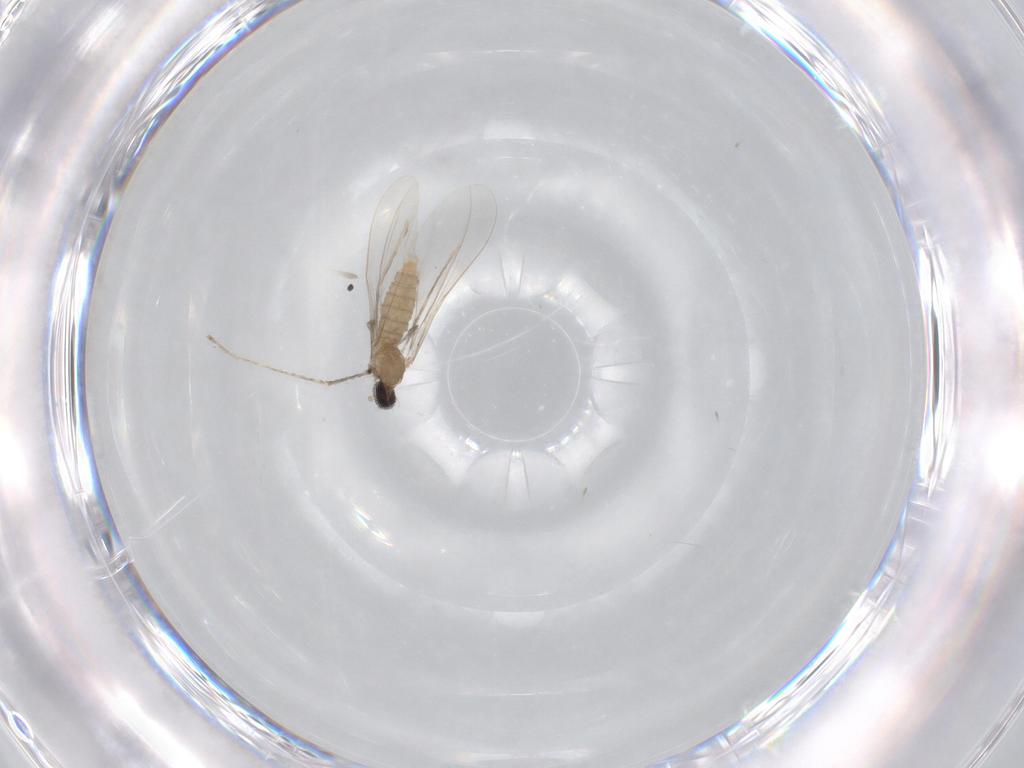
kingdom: Animalia
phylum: Arthropoda
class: Insecta
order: Diptera
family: Cecidomyiidae
